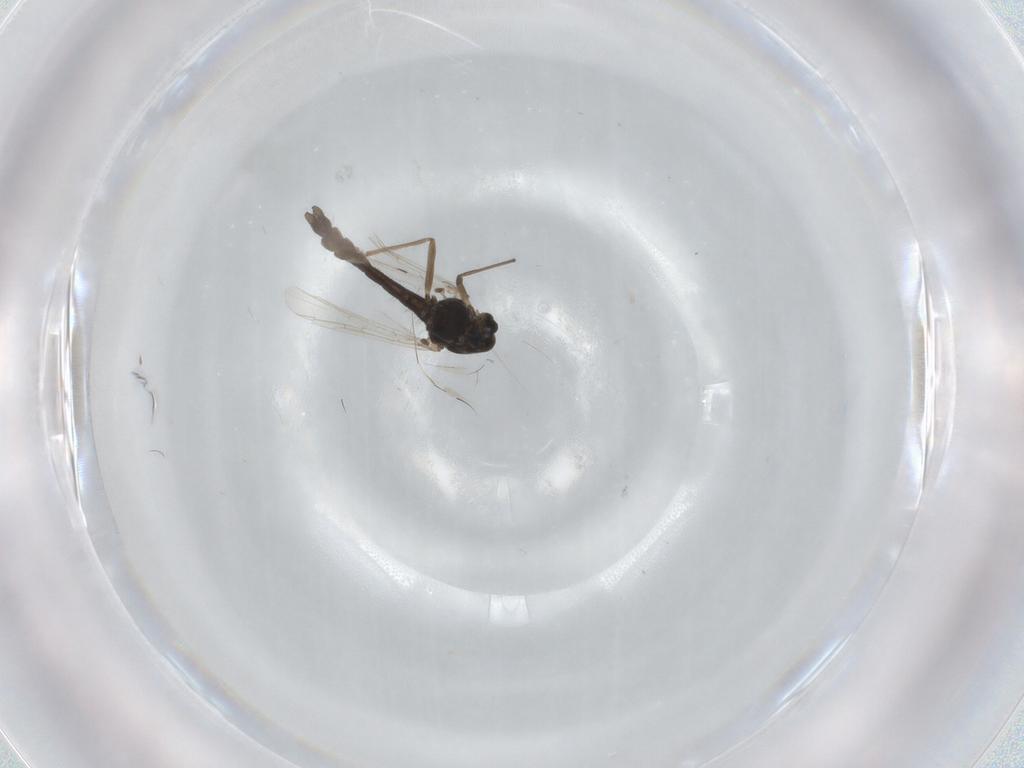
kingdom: Animalia
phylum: Arthropoda
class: Insecta
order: Diptera
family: Chironomidae
